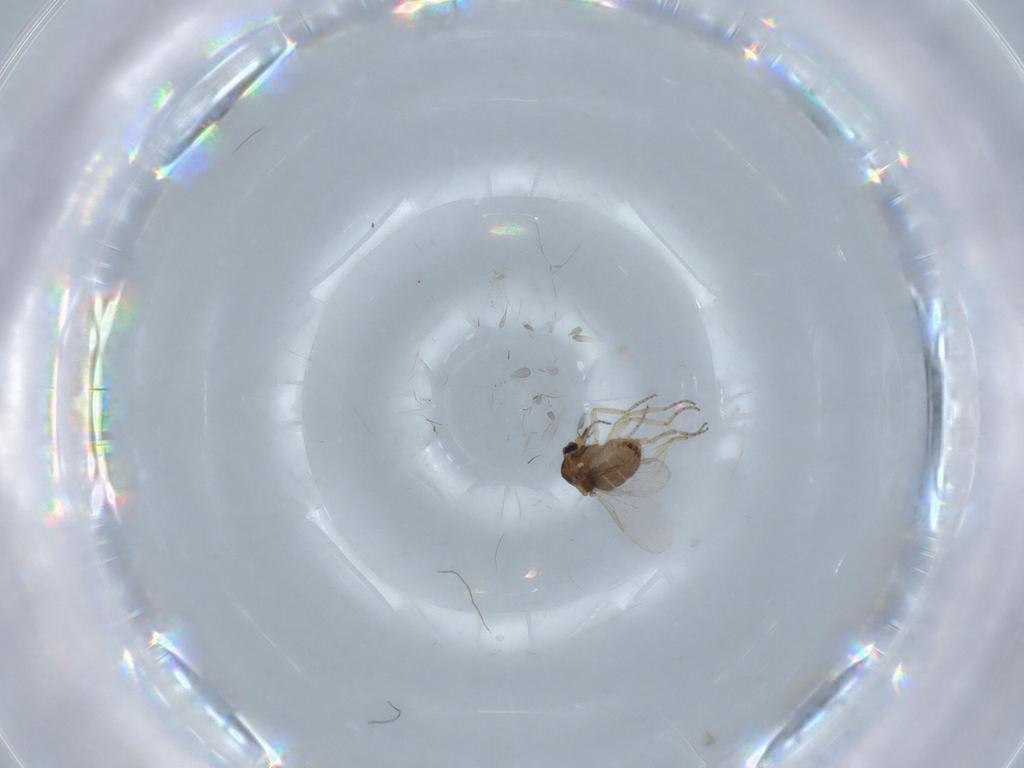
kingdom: Animalia
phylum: Arthropoda
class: Insecta
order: Diptera
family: Ceratopogonidae
